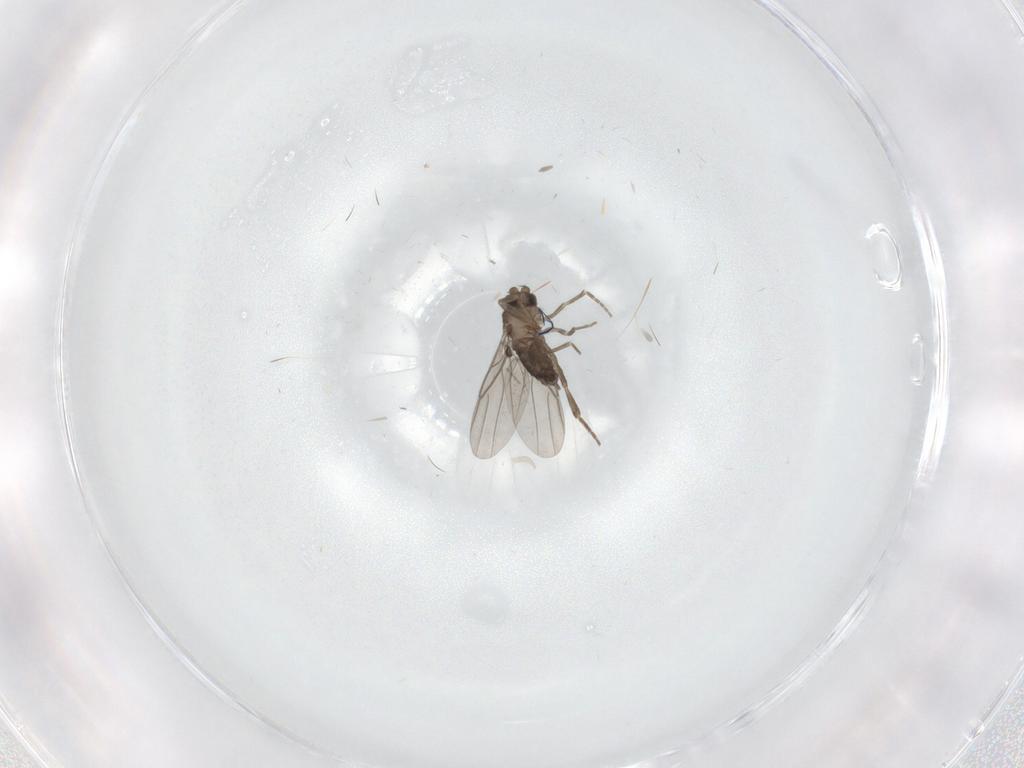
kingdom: Animalia
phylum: Arthropoda
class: Insecta
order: Diptera
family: Phoridae
